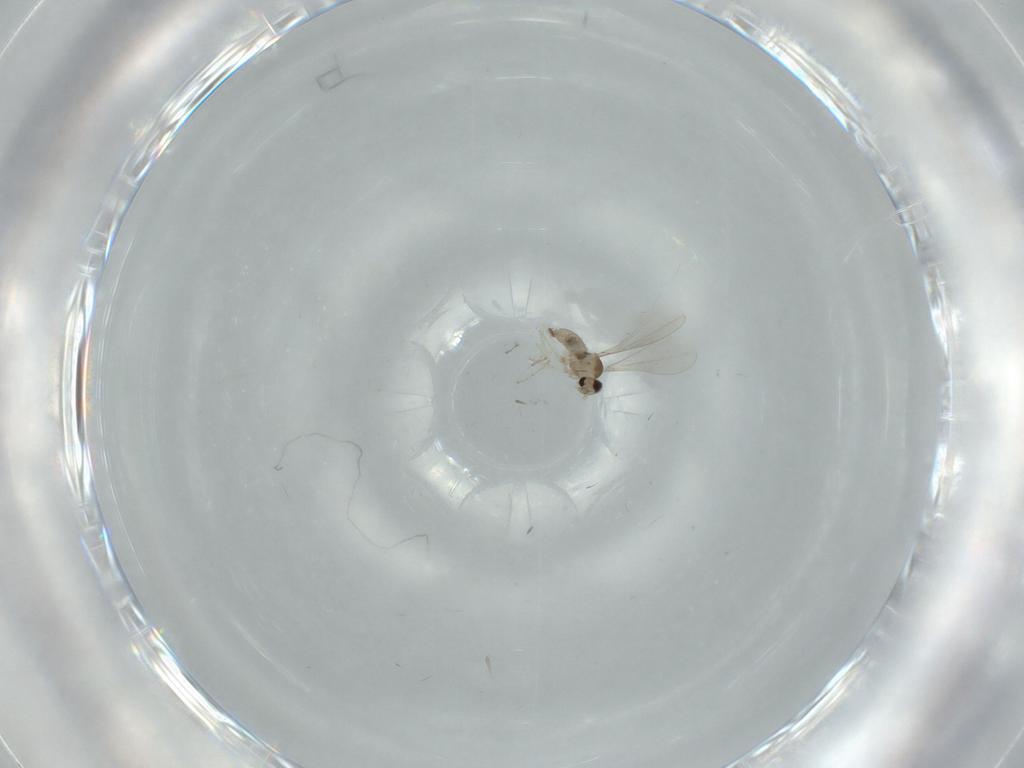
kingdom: Animalia
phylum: Arthropoda
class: Insecta
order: Diptera
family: Cecidomyiidae
